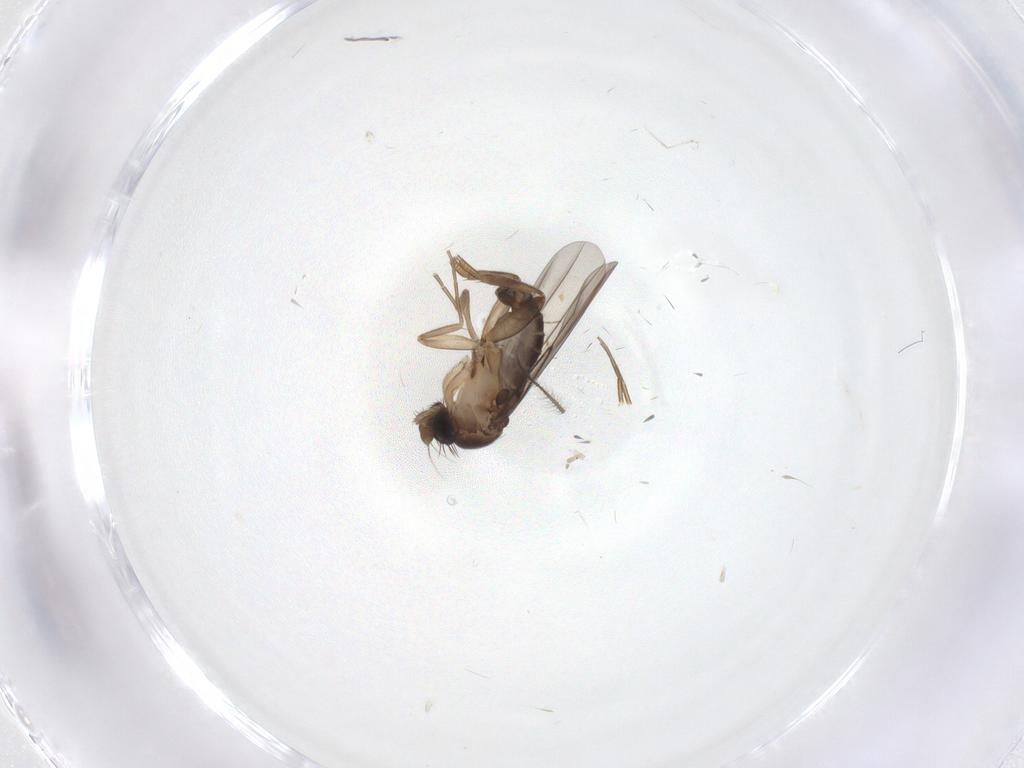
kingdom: Animalia
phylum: Arthropoda
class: Insecta
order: Diptera
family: Phoridae
